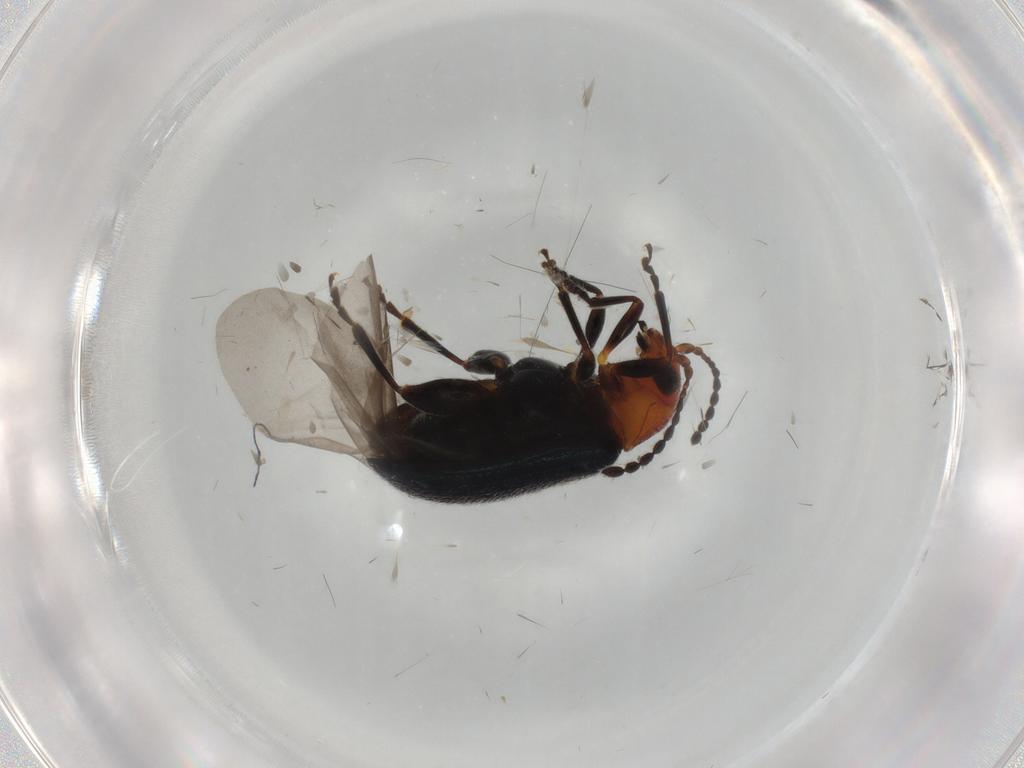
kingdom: Animalia
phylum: Arthropoda
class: Insecta
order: Coleoptera
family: Chrysomelidae
